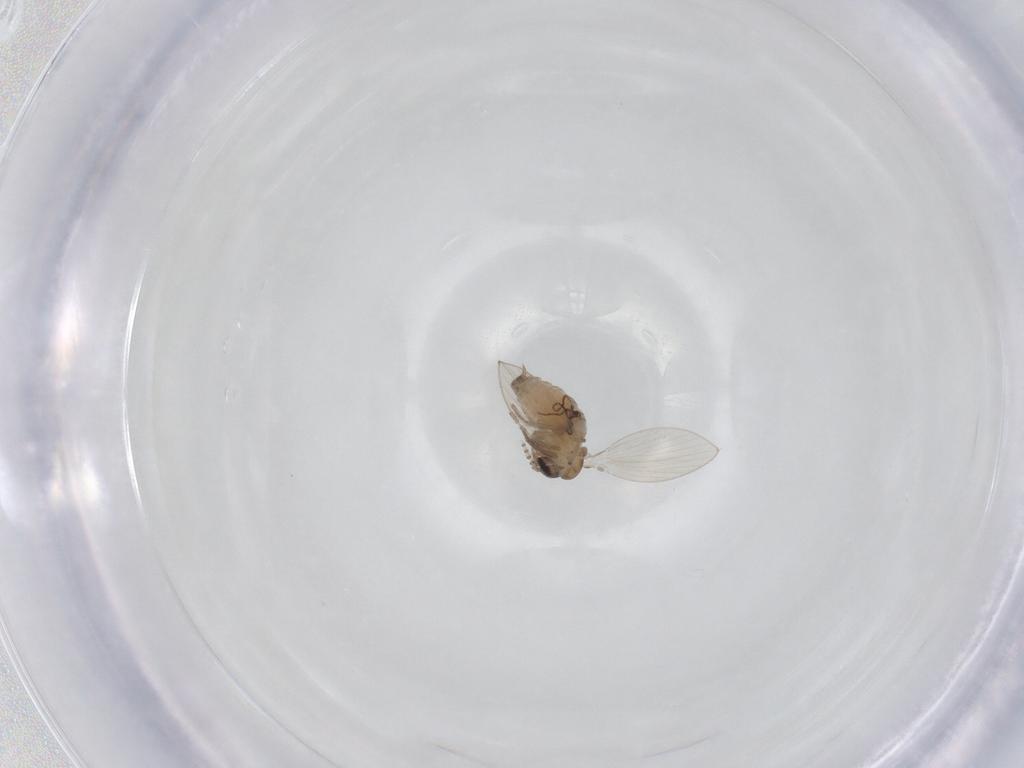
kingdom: Animalia
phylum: Arthropoda
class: Insecta
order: Diptera
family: Psychodidae
